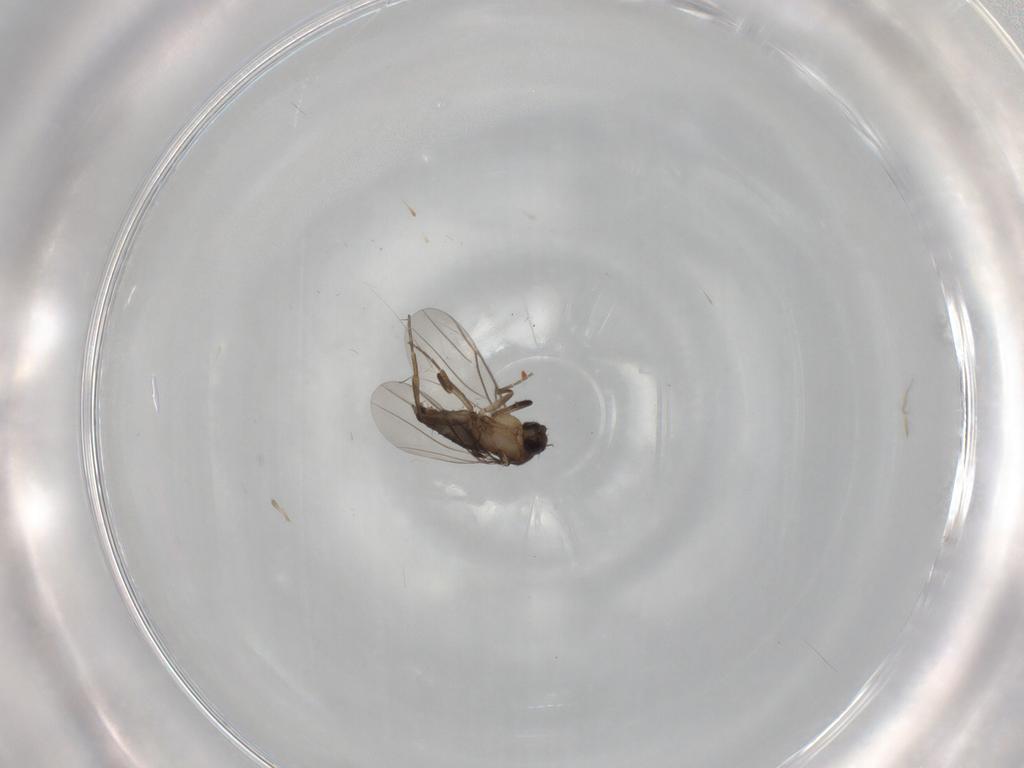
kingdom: Animalia
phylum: Arthropoda
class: Insecta
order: Diptera
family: Phoridae
